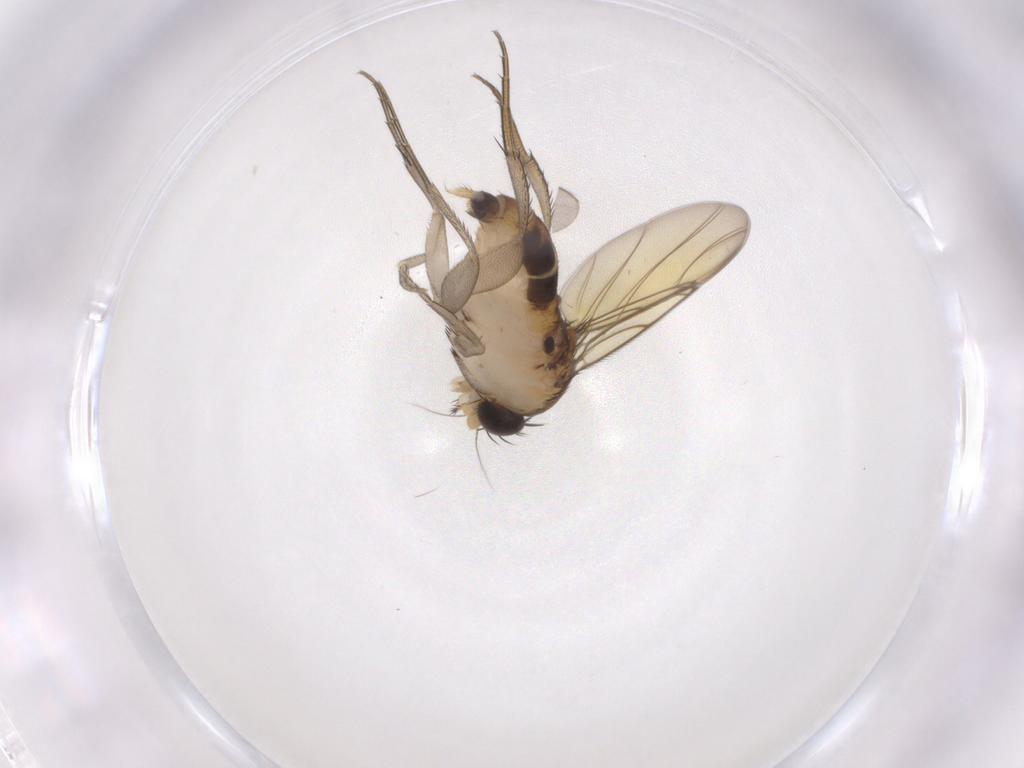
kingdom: Animalia
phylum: Arthropoda
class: Insecta
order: Diptera
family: Phoridae
